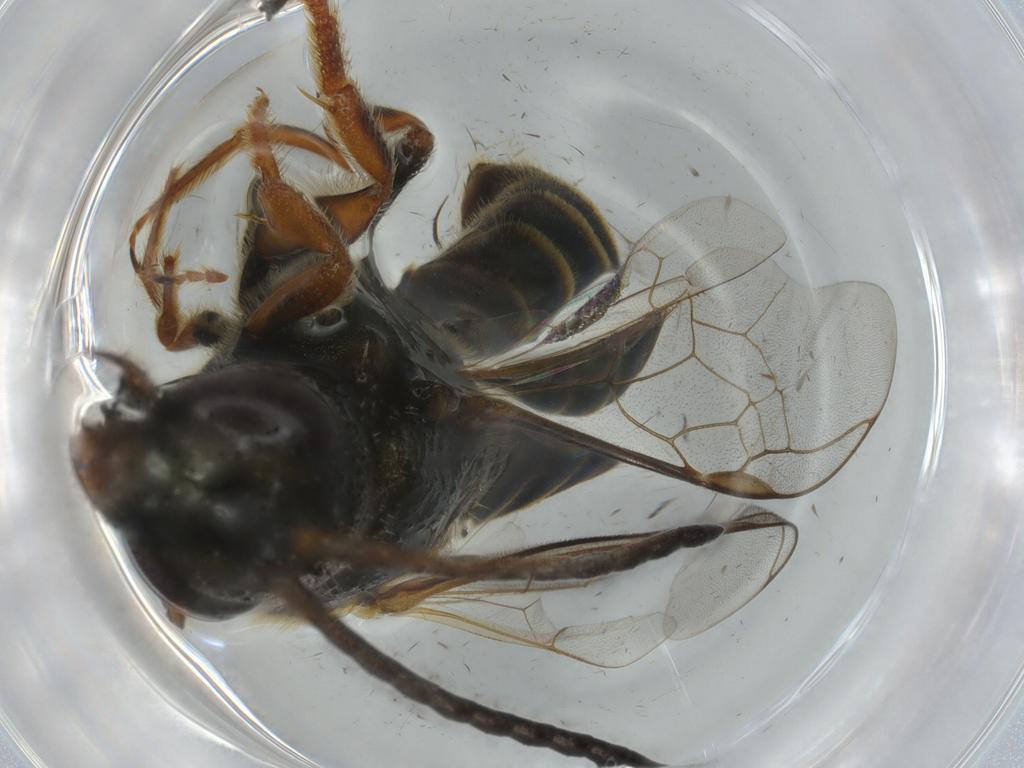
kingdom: Animalia
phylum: Arthropoda
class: Insecta
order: Hymenoptera
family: Halictidae
